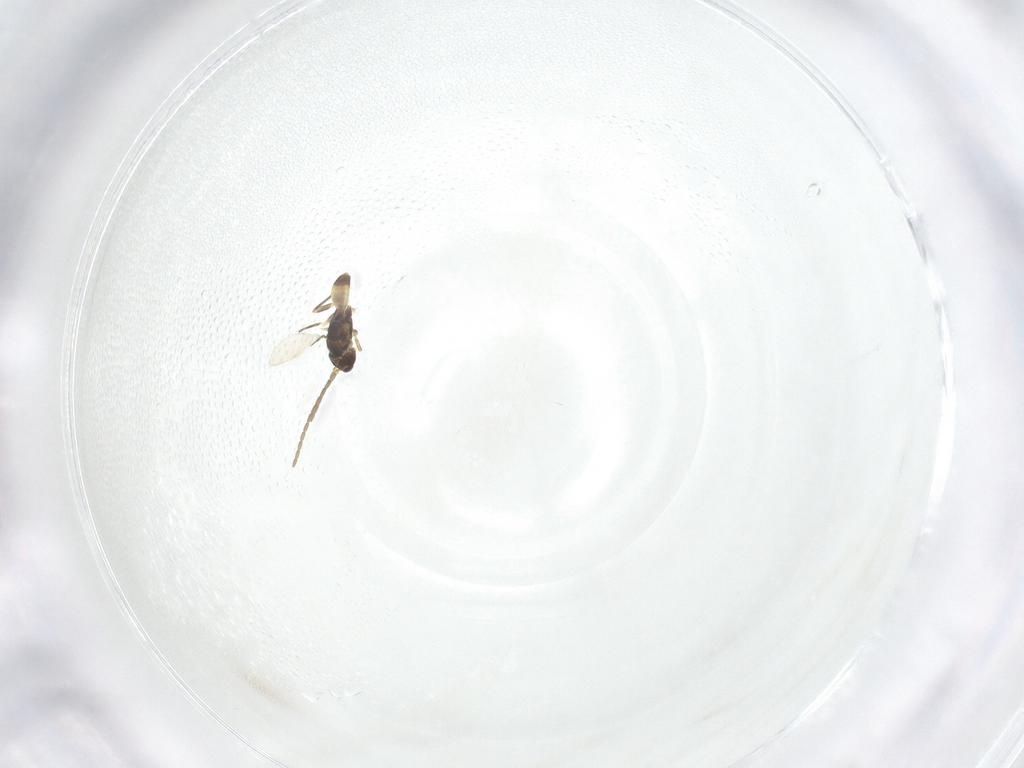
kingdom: Animalia
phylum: Arthropoda
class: Insecta
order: Hymenoptera
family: Mymaridae
